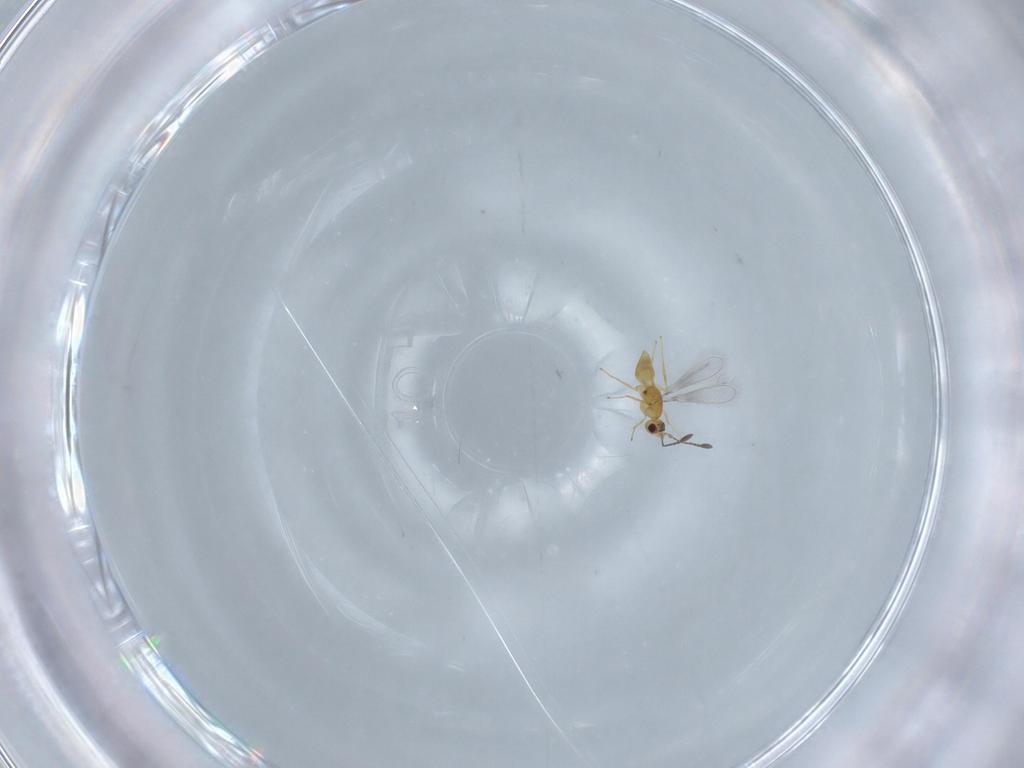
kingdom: Animalia
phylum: Arthropoda
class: Insecta
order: Hymenoptera
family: Mymaridae
